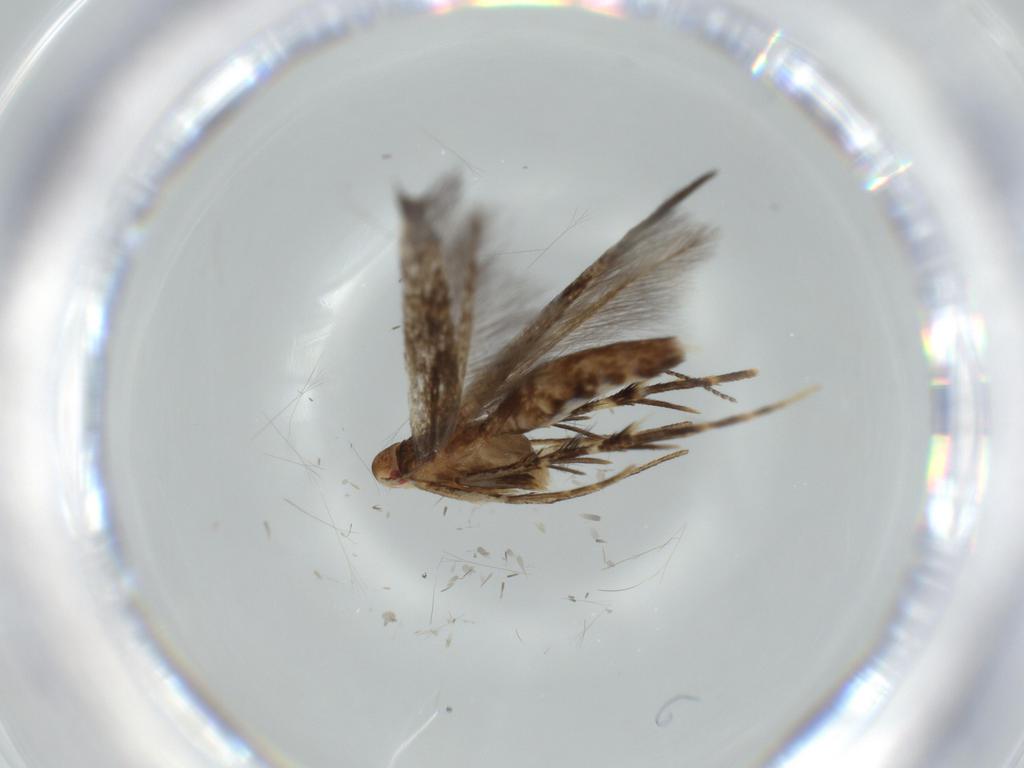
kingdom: Animalia
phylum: Arthropoda
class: Insecta
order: Lepidoptera
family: Cosmopterigidae
